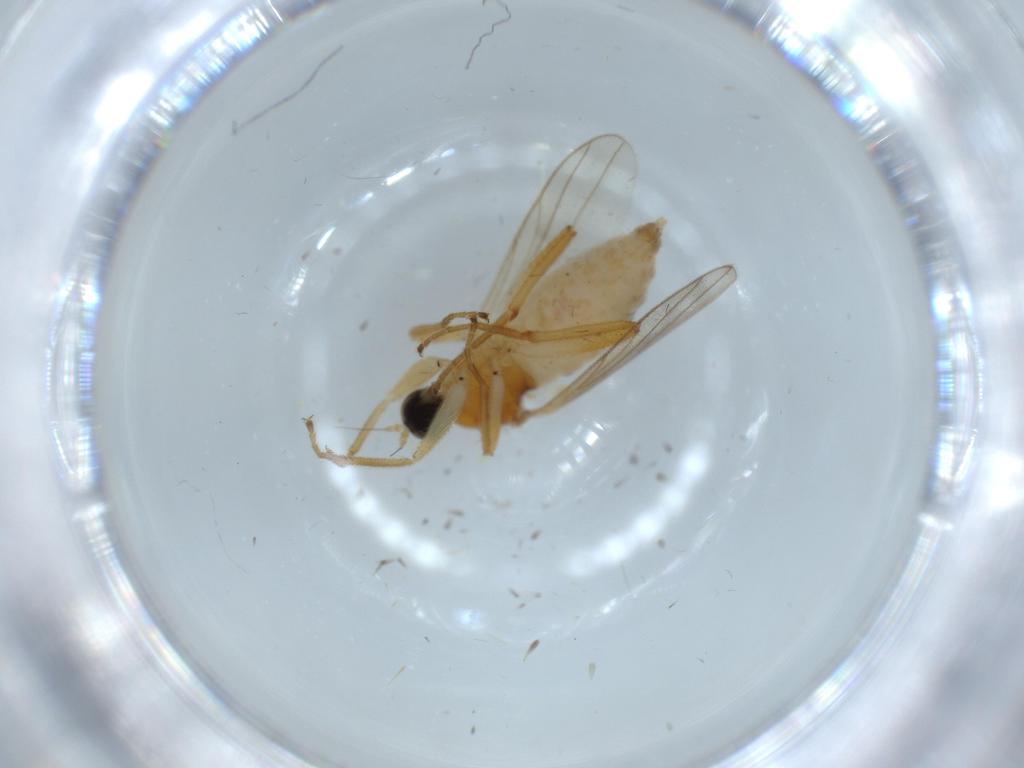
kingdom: Animalia
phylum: Arthropoda
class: Insecta
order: Diptera
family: Hybotidae
